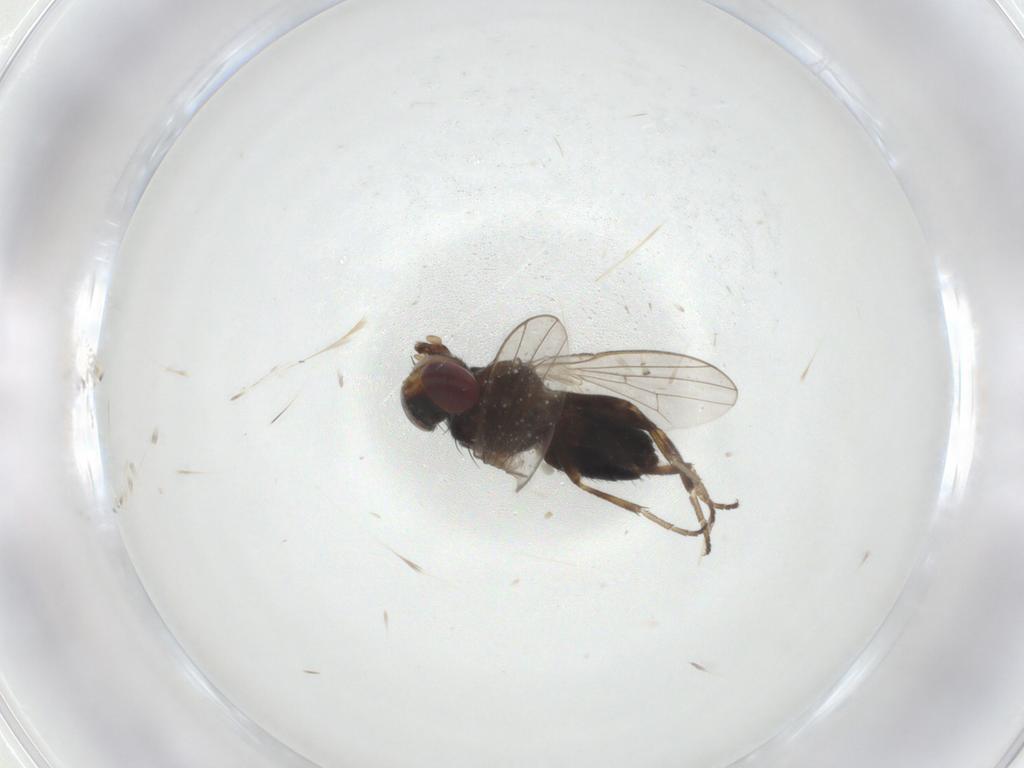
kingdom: Animalia
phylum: Arthropoda
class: Insecta
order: Diptera
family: Heleomyzidae
